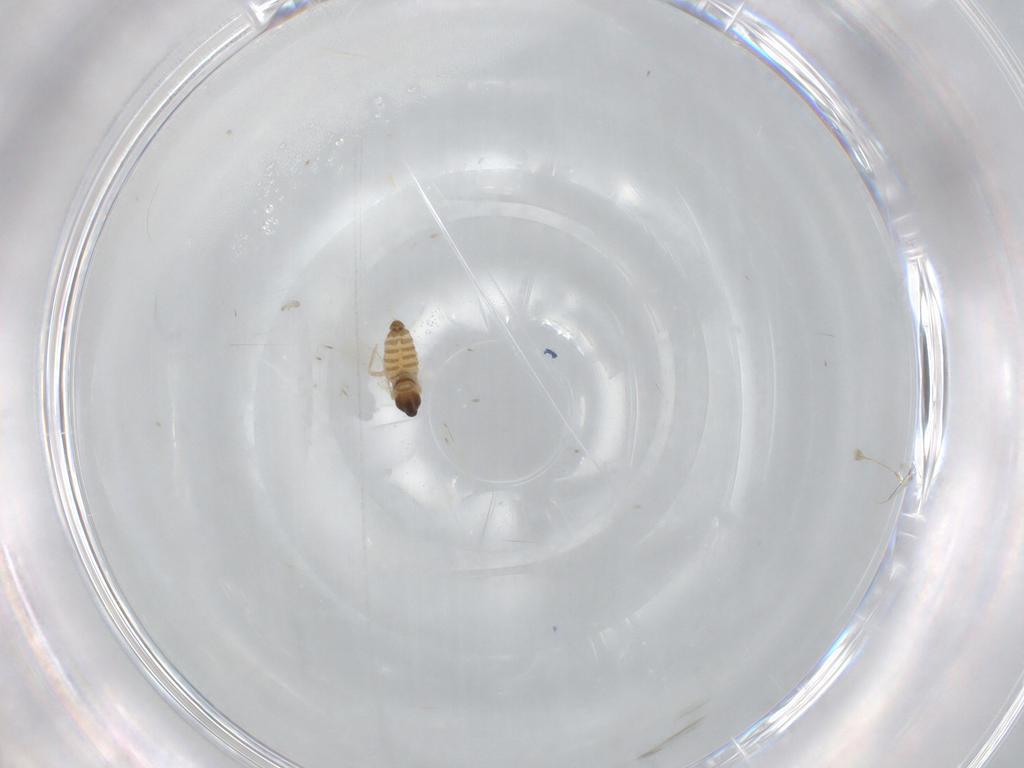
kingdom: Animalia
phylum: Arthropoda
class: Insecta
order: Diptera
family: Cecidomyiidae
